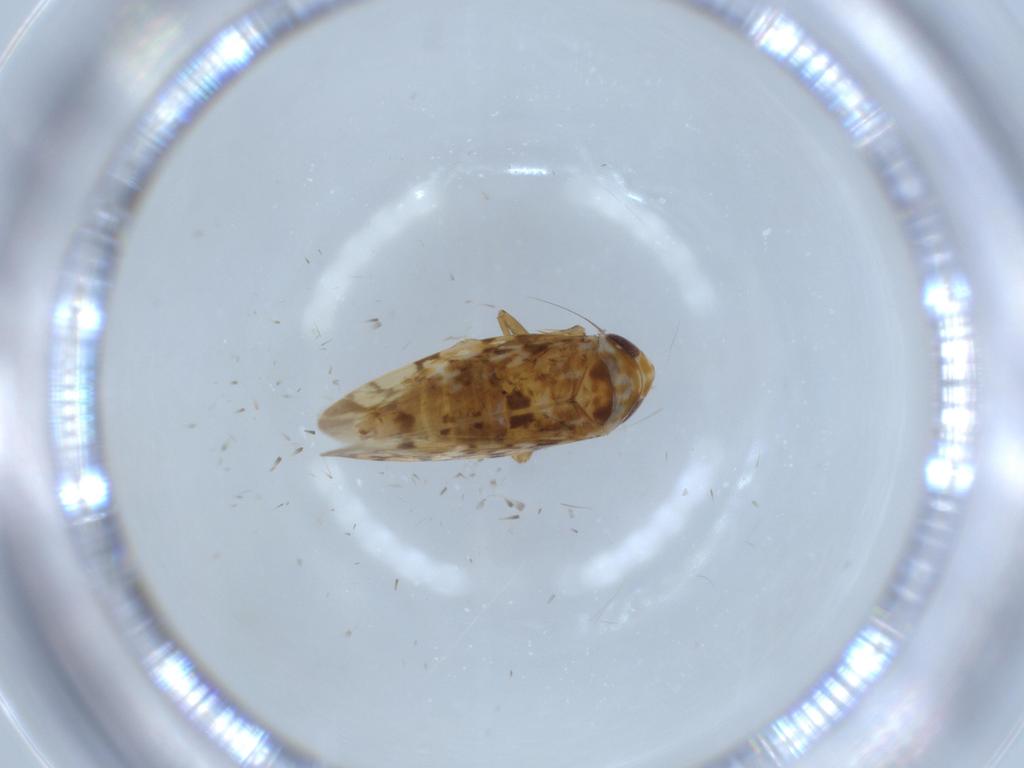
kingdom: Animalia
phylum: Arthropoda
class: Insecta
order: Hemiptera
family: Cicadellidae
